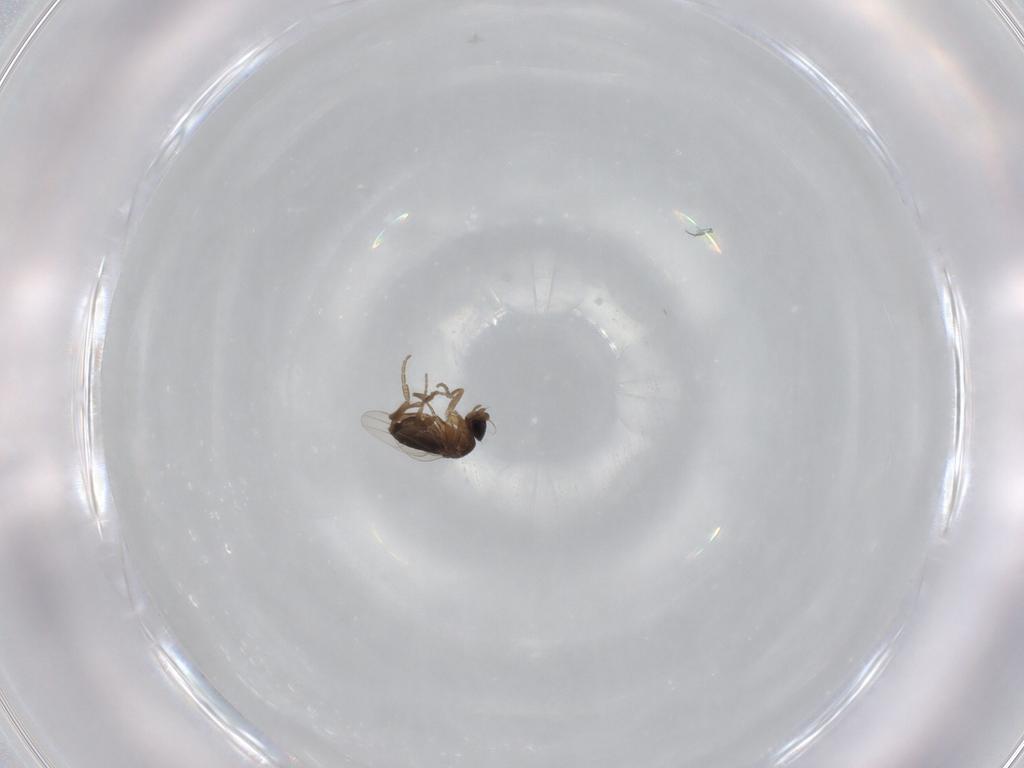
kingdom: Animalia
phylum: Arthropoda
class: Insecta
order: Diptera
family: Phoridae
